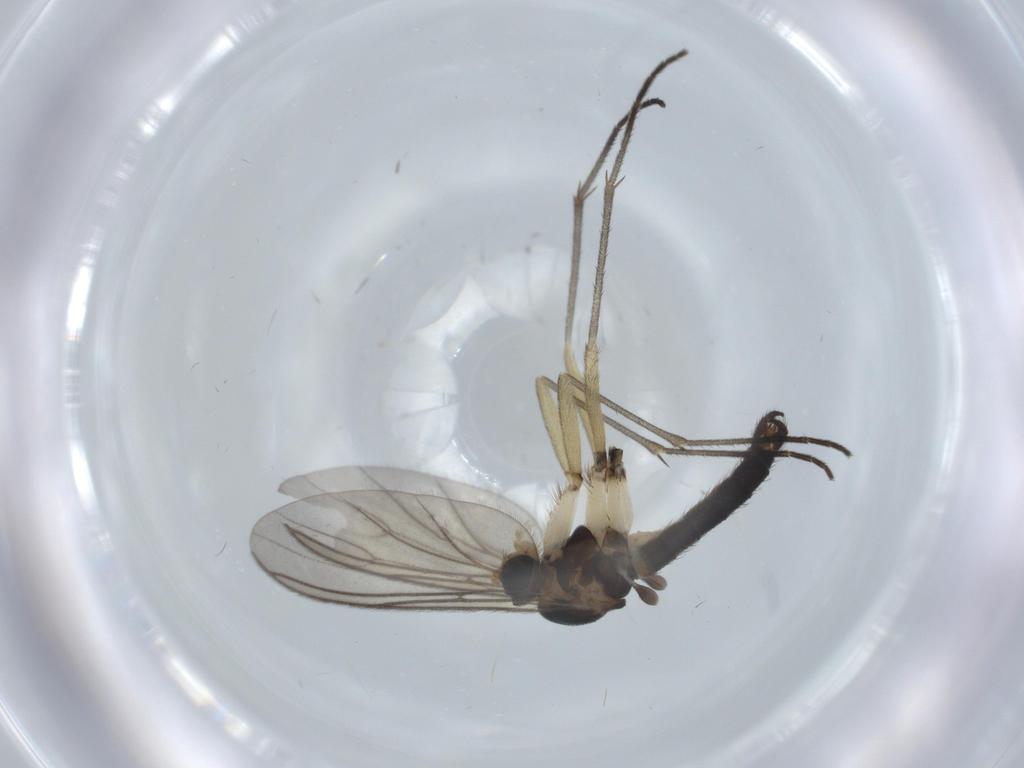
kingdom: Animalia
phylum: Arthropoda
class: Insecta
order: Diptera
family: Sciaridae
